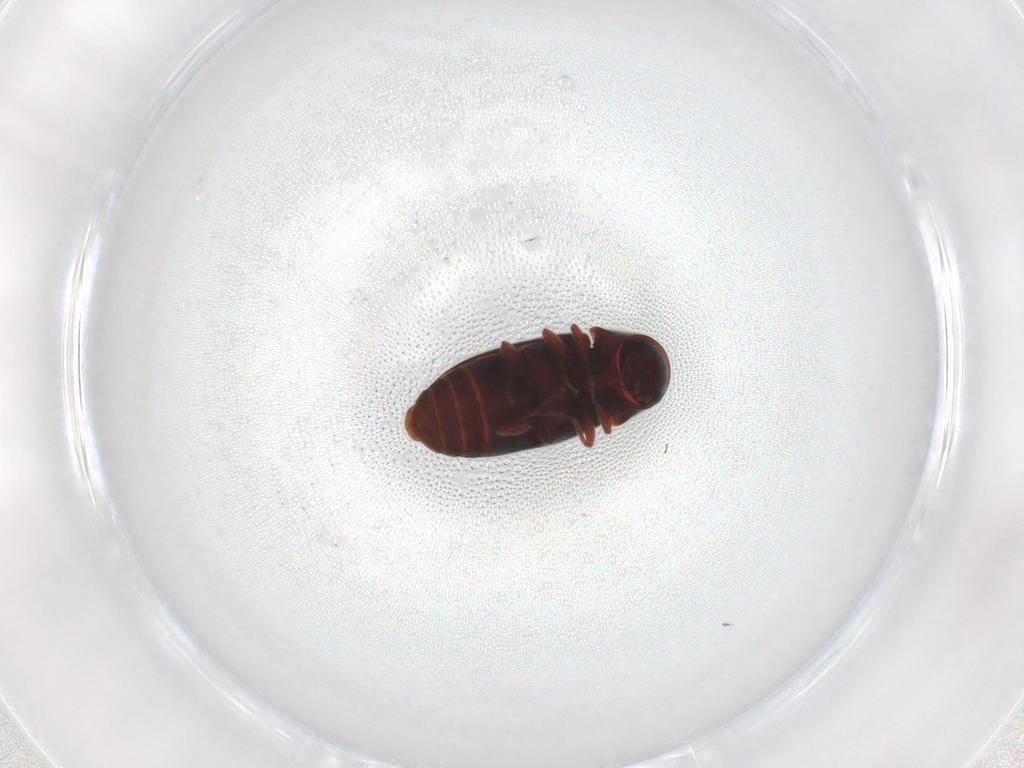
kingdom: Animalia
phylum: Arthropoda
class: Insecta
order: Coleoptera
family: Ptinidae
